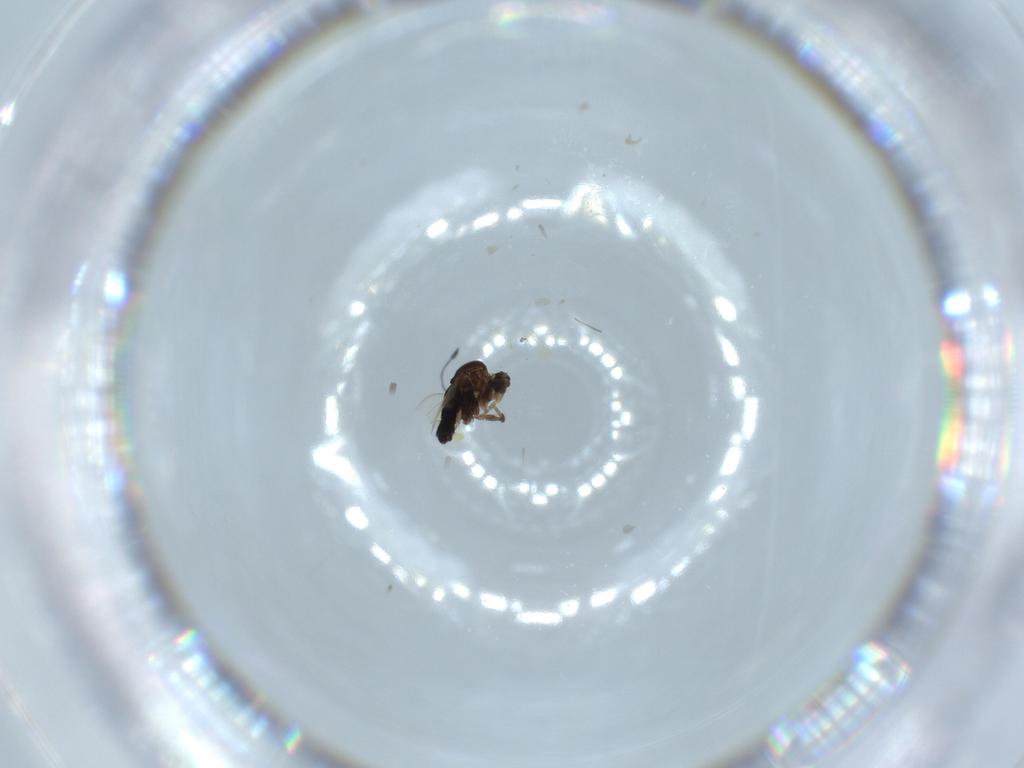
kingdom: Animalia
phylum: Arthropoda
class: Insecta
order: Diptera
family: Phoridae
